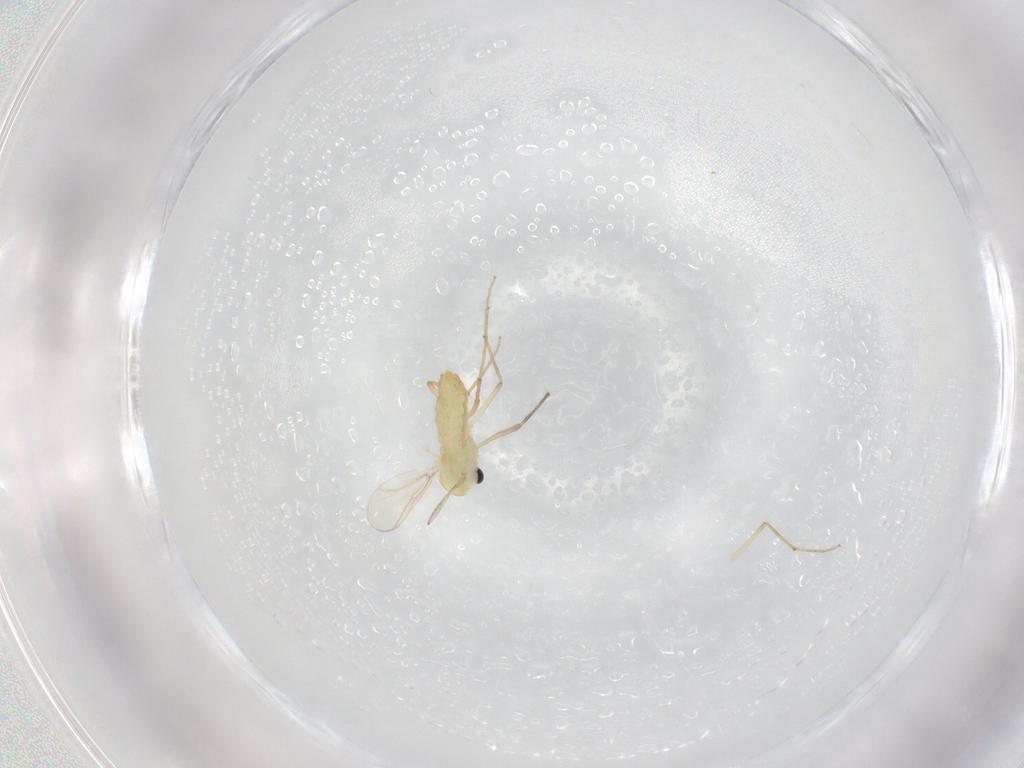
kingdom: Animalia
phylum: Arthropoda
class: Insecta
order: Diptera
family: Chironomidae
